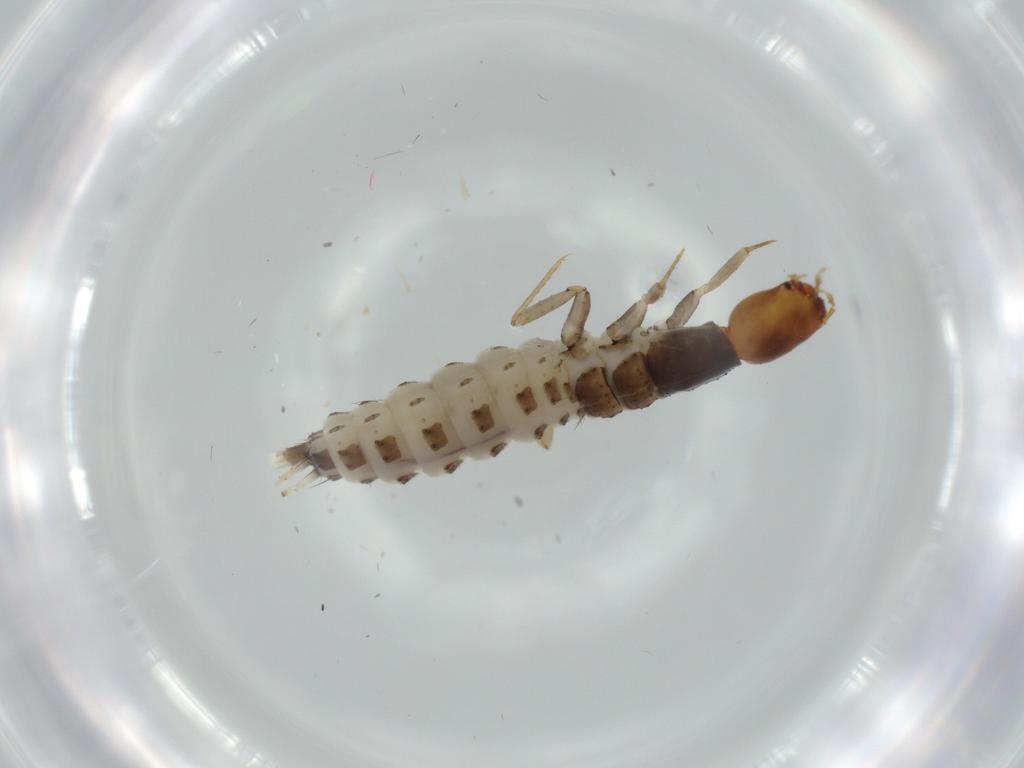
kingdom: Animalia
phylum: Arthropoda
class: Insecta
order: Coleoptera
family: Staphylinidae
